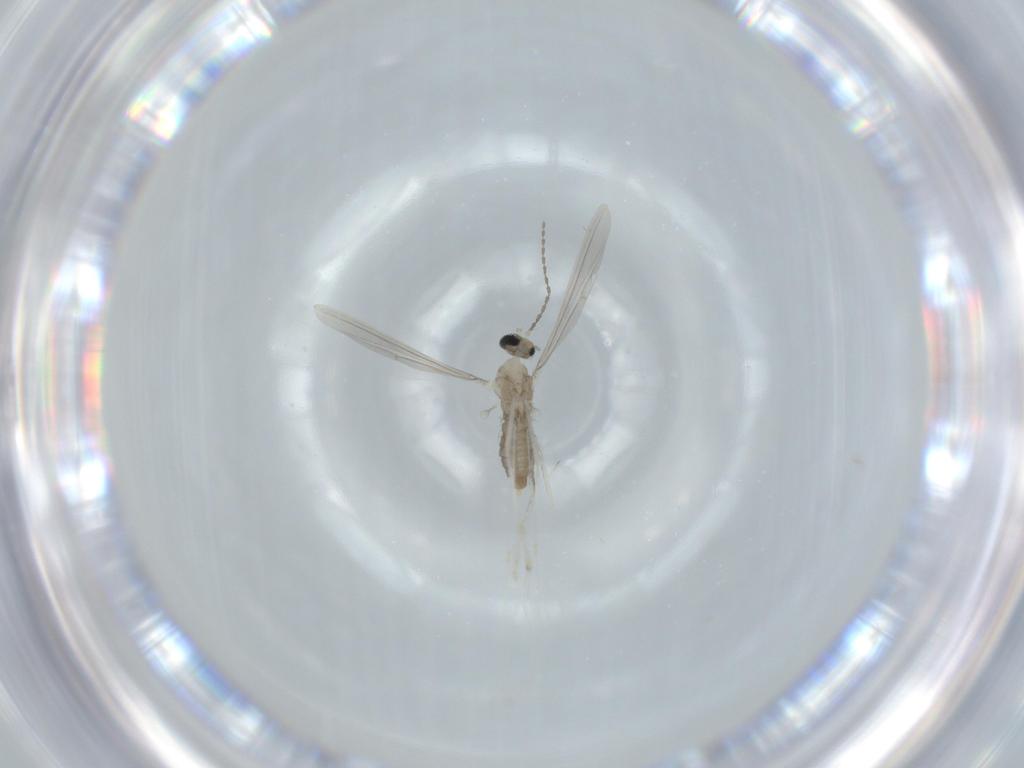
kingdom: Animalia
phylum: Arthropoda
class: Insecta
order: Diptera
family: Cecidomyiidae
